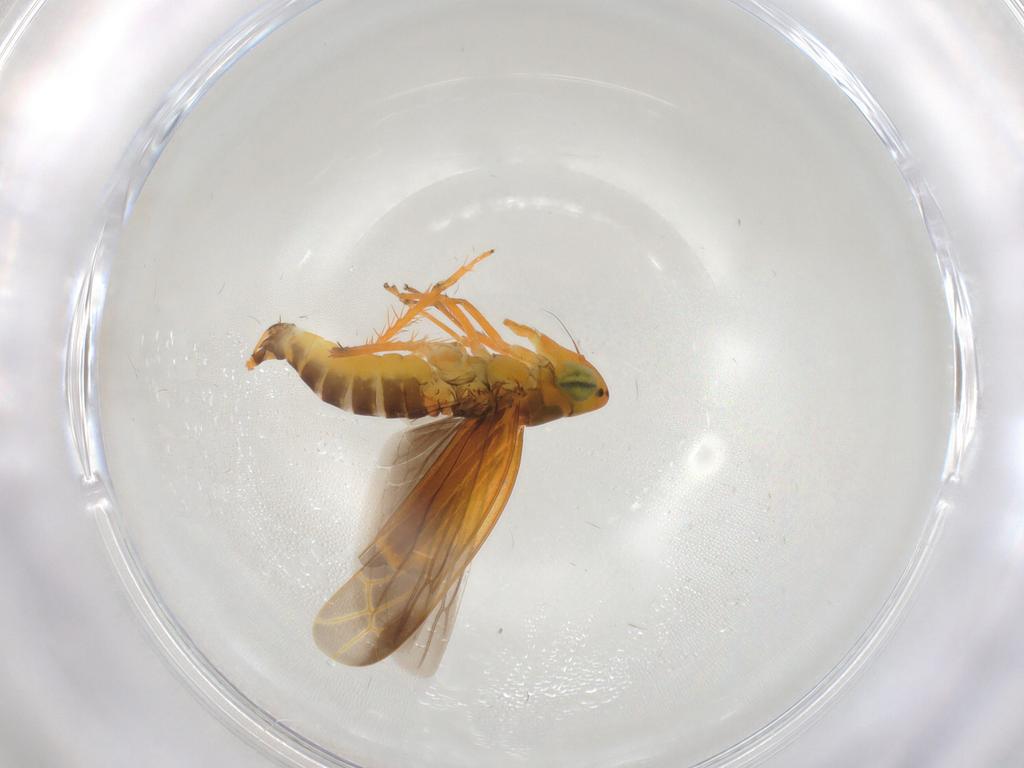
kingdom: Animalia
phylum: Arthropoda
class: Insecta
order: Hemiptera
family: Cicadellidae
